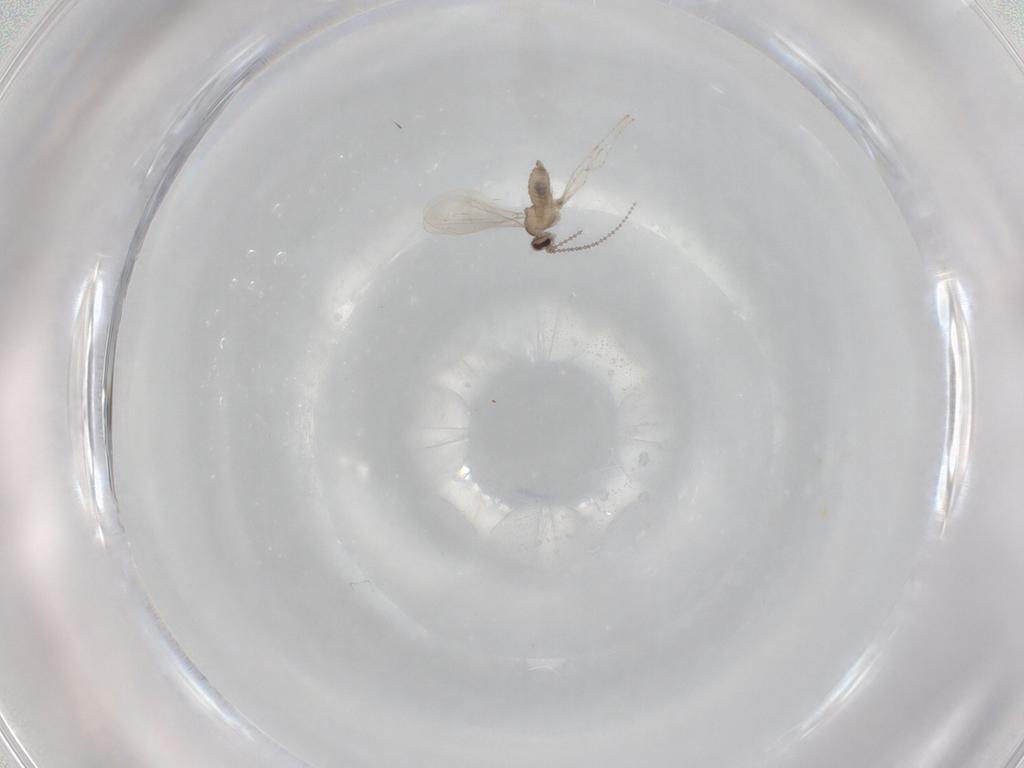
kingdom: Animalia
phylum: Arthropoda
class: Insecta
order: Diptera
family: Cecidomyiidae
